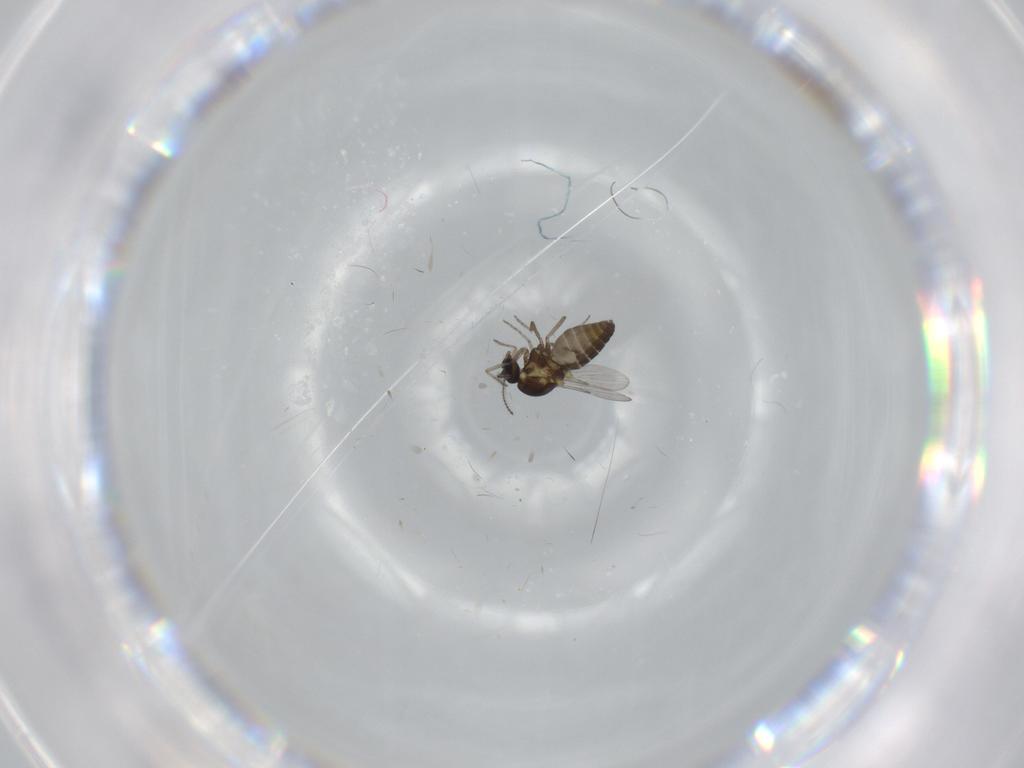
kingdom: Animalia
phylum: Arthropoda
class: Insecta
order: Diptera
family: Ceratopogonidae
